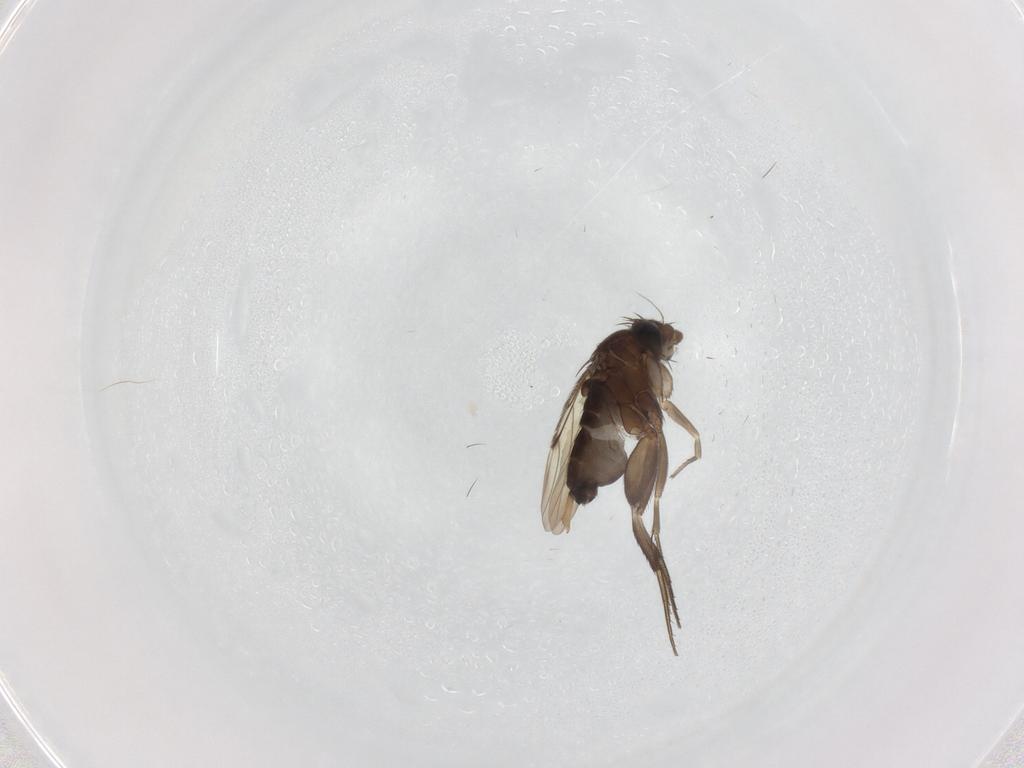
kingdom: Animalia
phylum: Arthropoda
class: Insecta
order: Diptera
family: Phoridae
